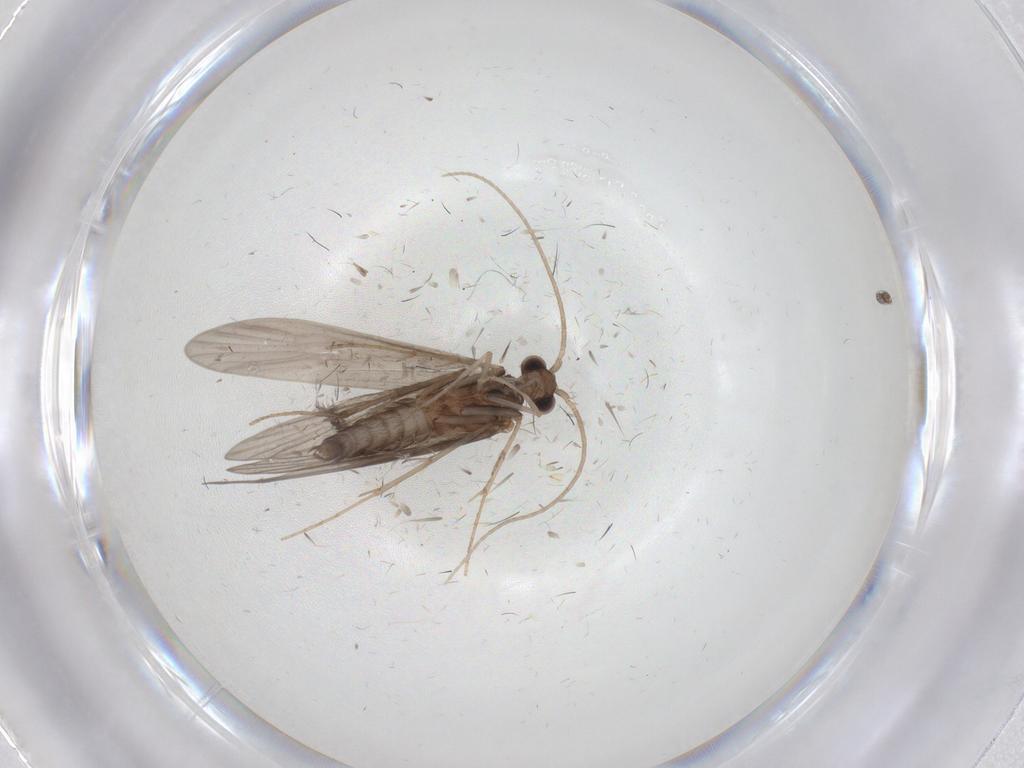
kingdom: Animalia
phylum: Arthropoda
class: Insecta
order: Trichoptera
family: Xiphocentronidae
